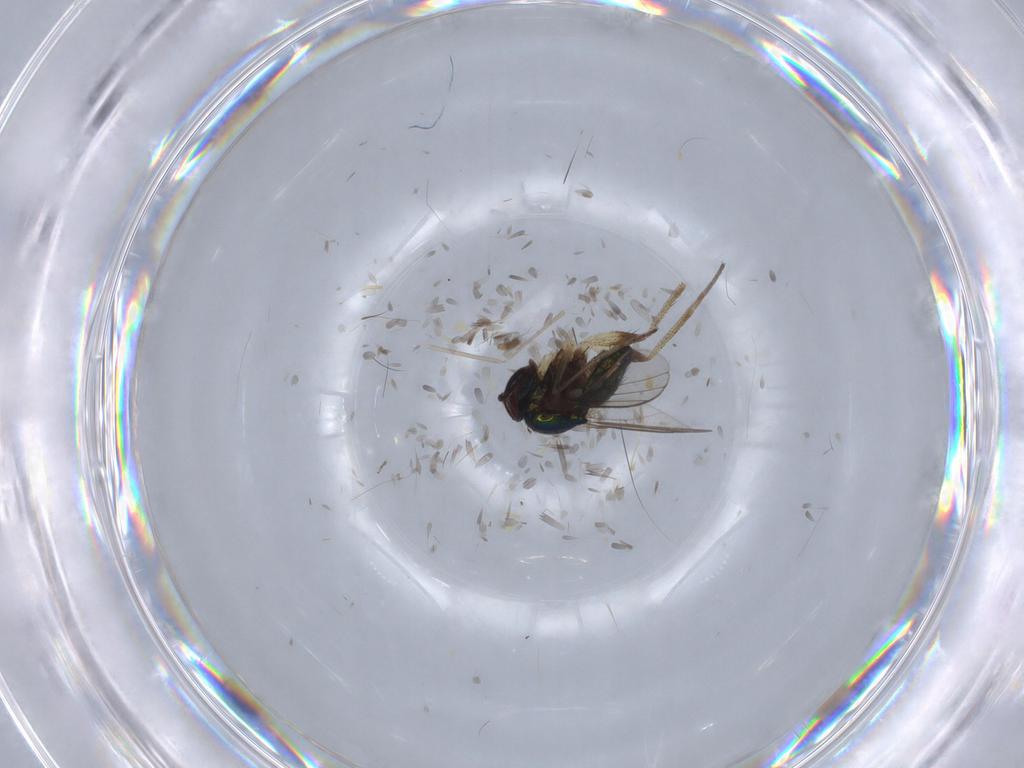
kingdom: Animalia
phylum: Arthropoda
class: Insecta
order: Diptera
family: Dolichopodidae
